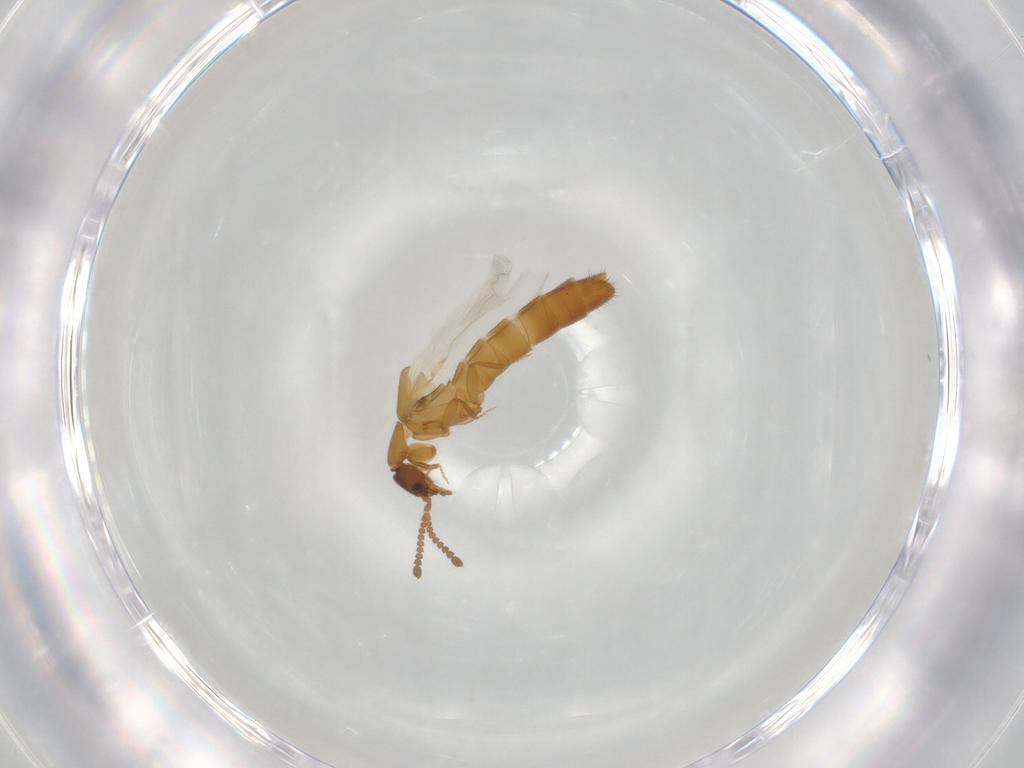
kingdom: Animalia
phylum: Arthropoda
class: Insecta
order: Coleoptera
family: Staphylinidae
